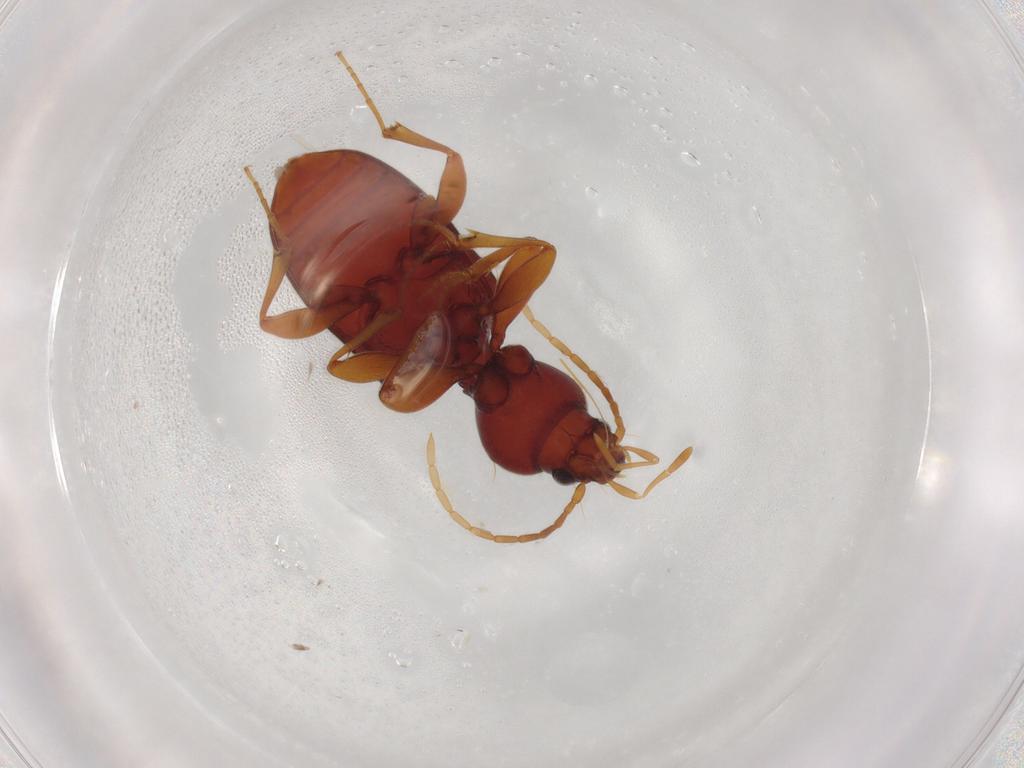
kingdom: Animalia
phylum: Arthropoda
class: Insecta
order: Coleoptera
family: Carabidae
